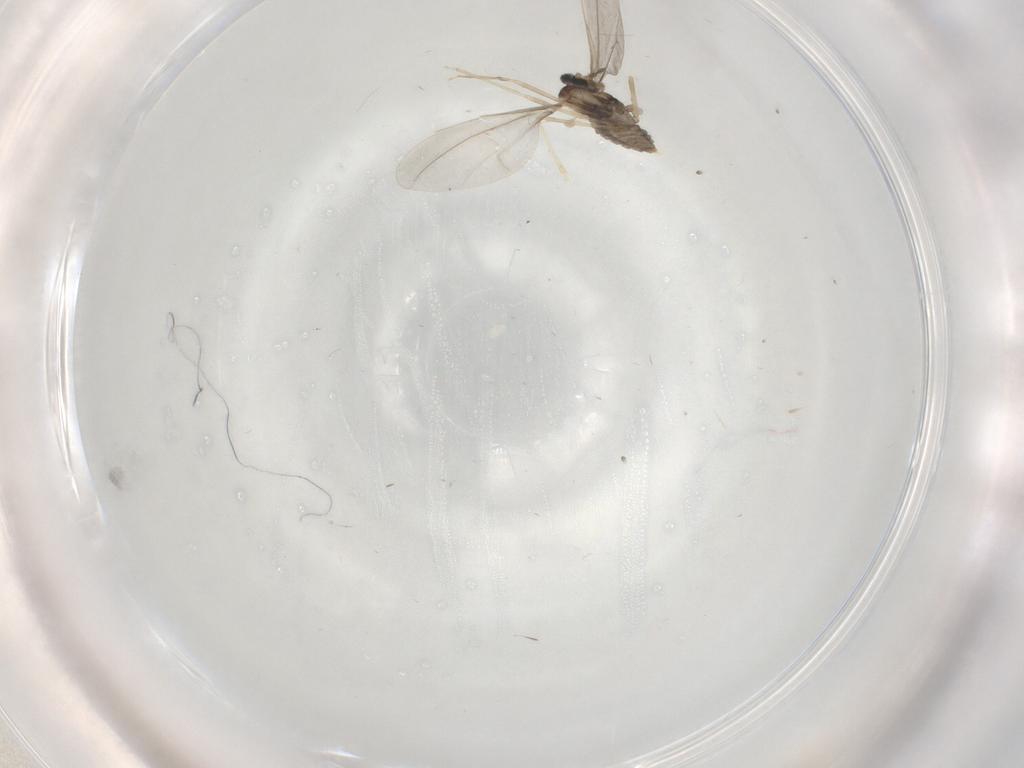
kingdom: Animalia
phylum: Arthropoda
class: Insecta
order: Diptera
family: Cecidomyiidae
